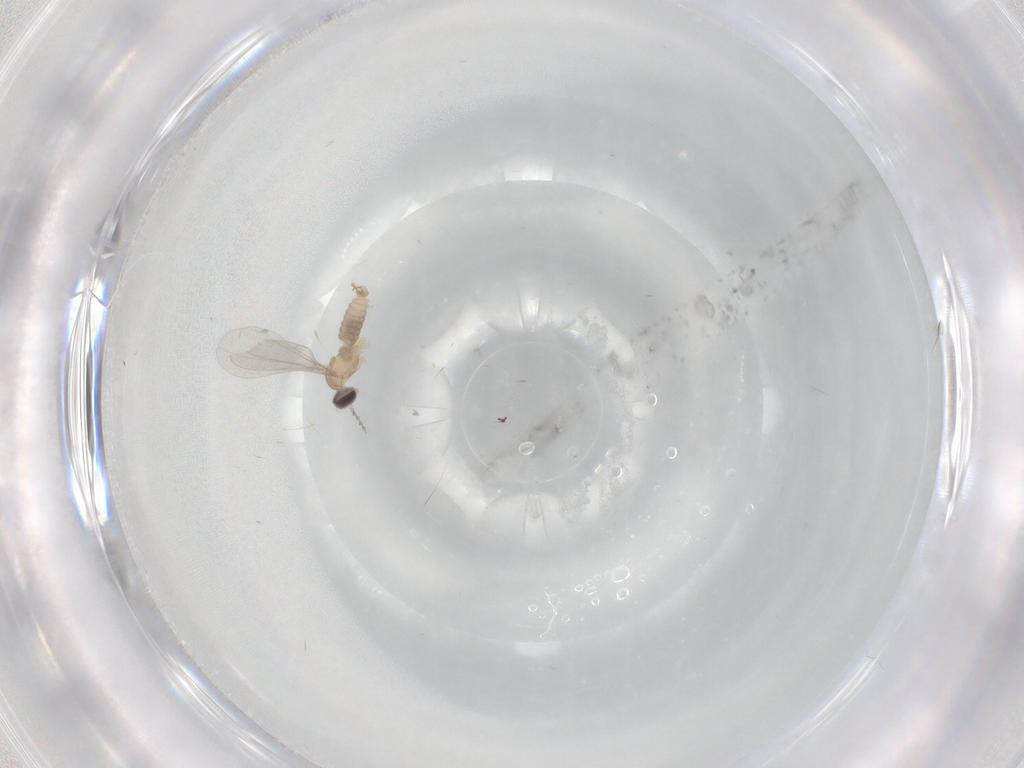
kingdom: Animalia
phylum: Arthropoda
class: Insecta
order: Diptera
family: Cecidomyiidae
